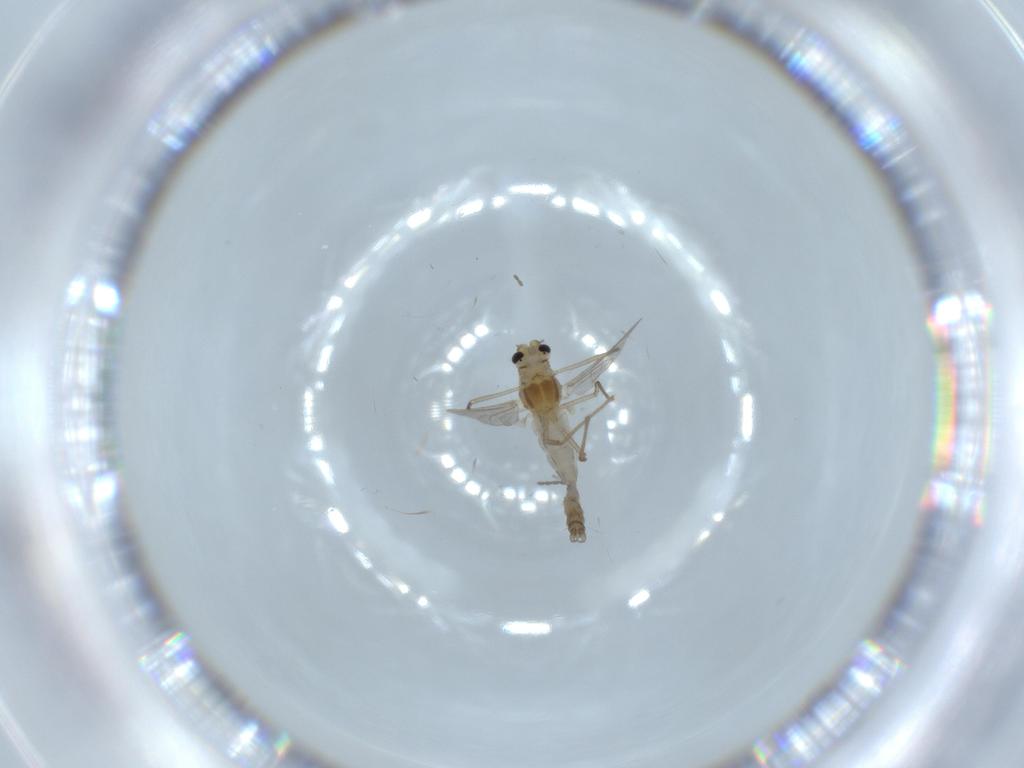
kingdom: Animalia
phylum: Arthropoda
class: Insecta
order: Diptera
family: Chironomidae
